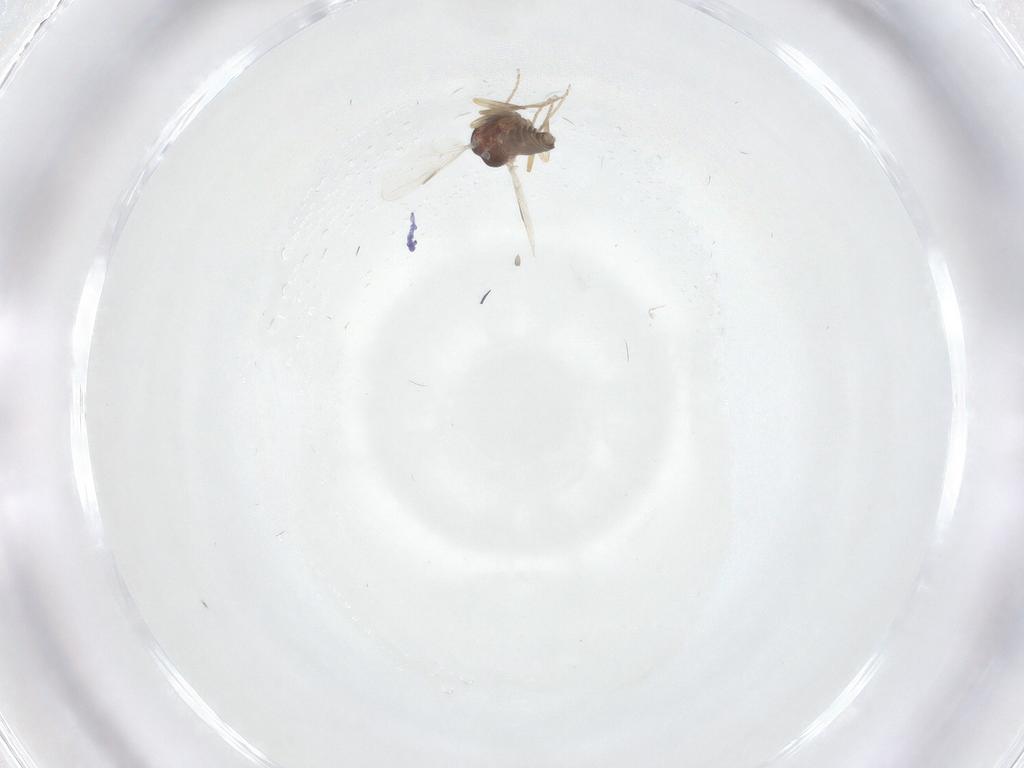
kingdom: Animalia
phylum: Arthropoda
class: Insecta
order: Diptera
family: Ceratopogonidae
